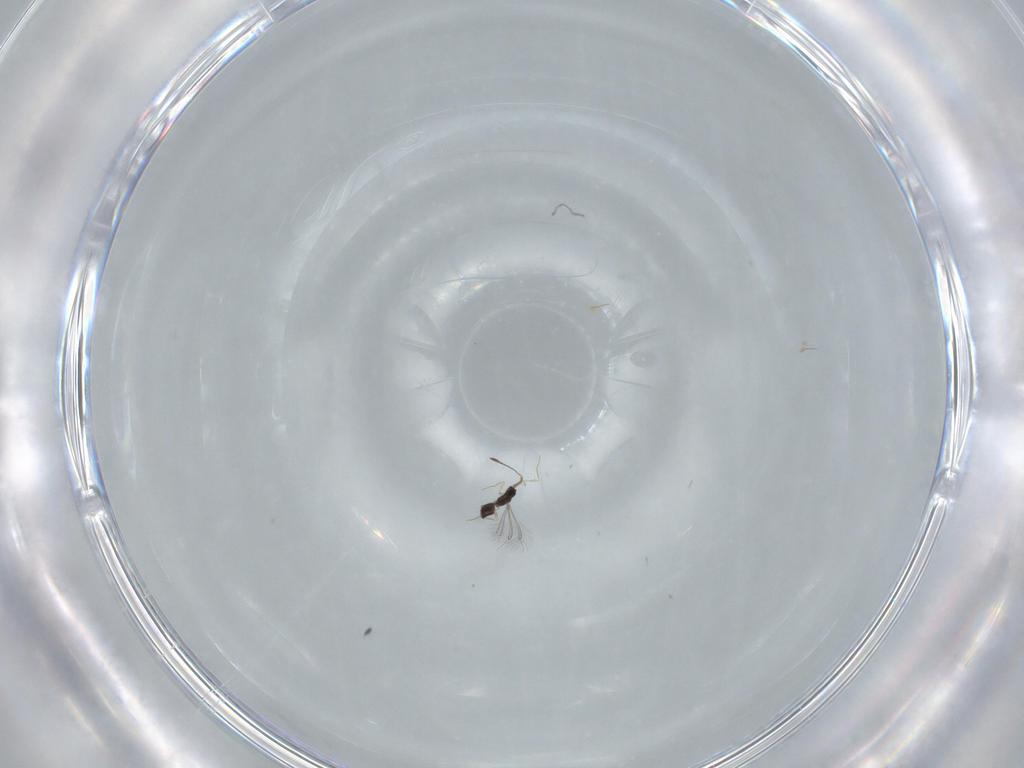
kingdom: Animalia
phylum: Arthropoda
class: Insecta
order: Hymenoptera
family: Mymaridae
